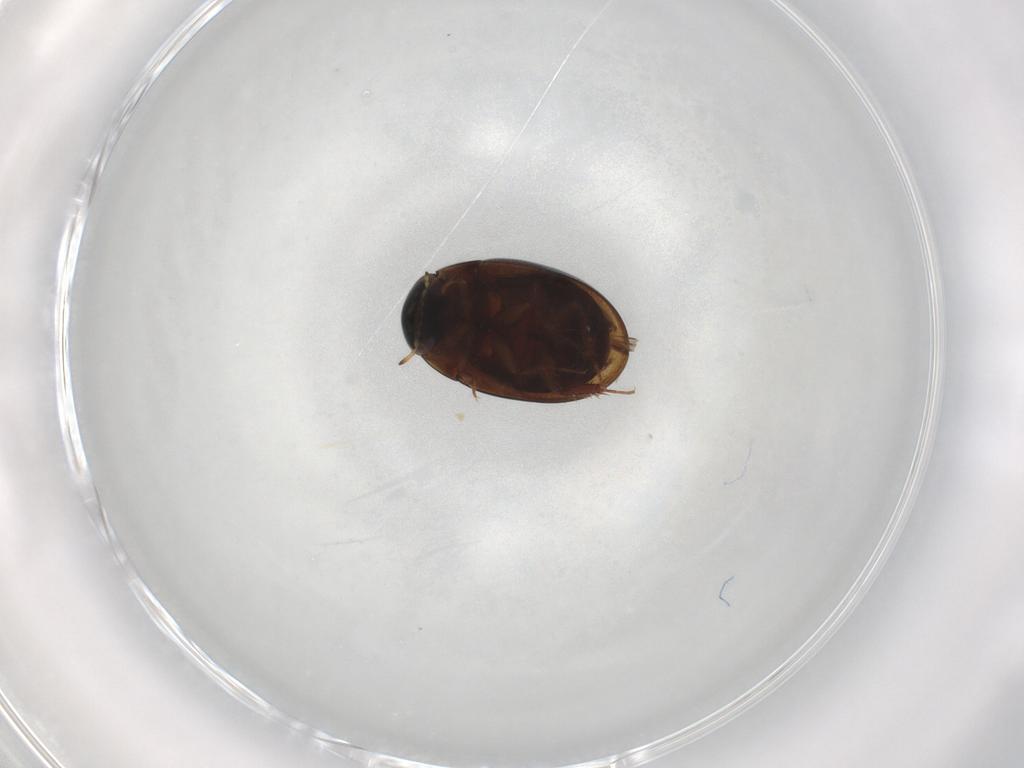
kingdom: Animalia
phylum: Arthropoda
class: Insecta
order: Coleoptera
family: Hydrophilidae
